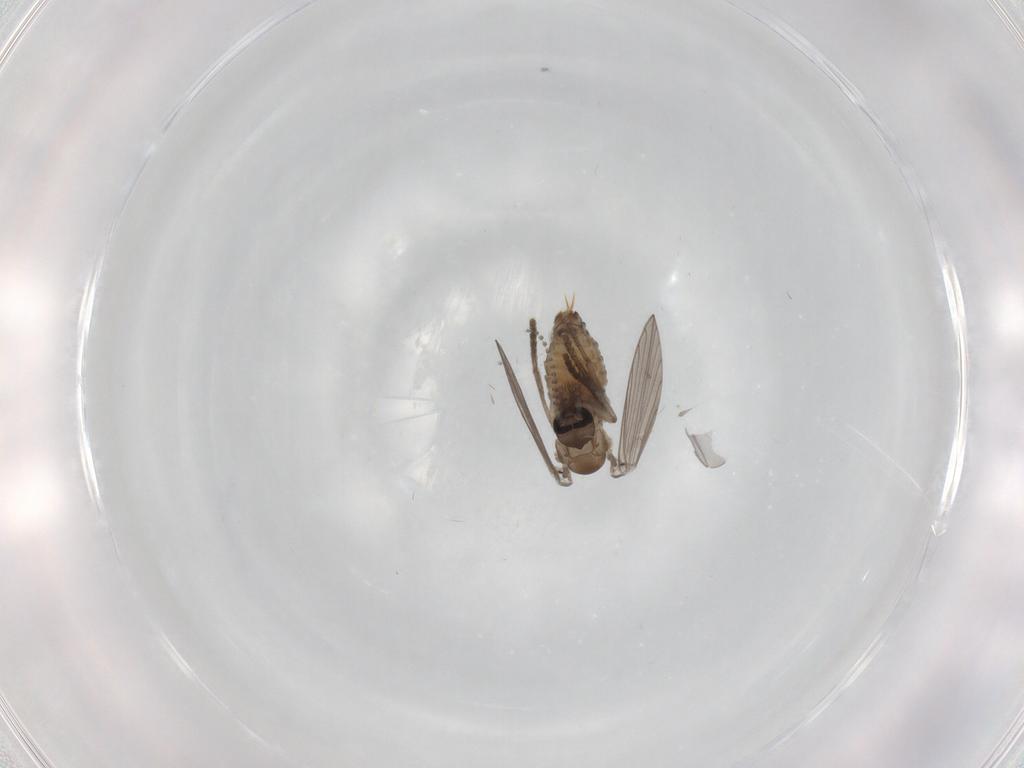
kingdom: Animalia
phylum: Arthropoda
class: Insecta
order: Diptera
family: Psychodidae
